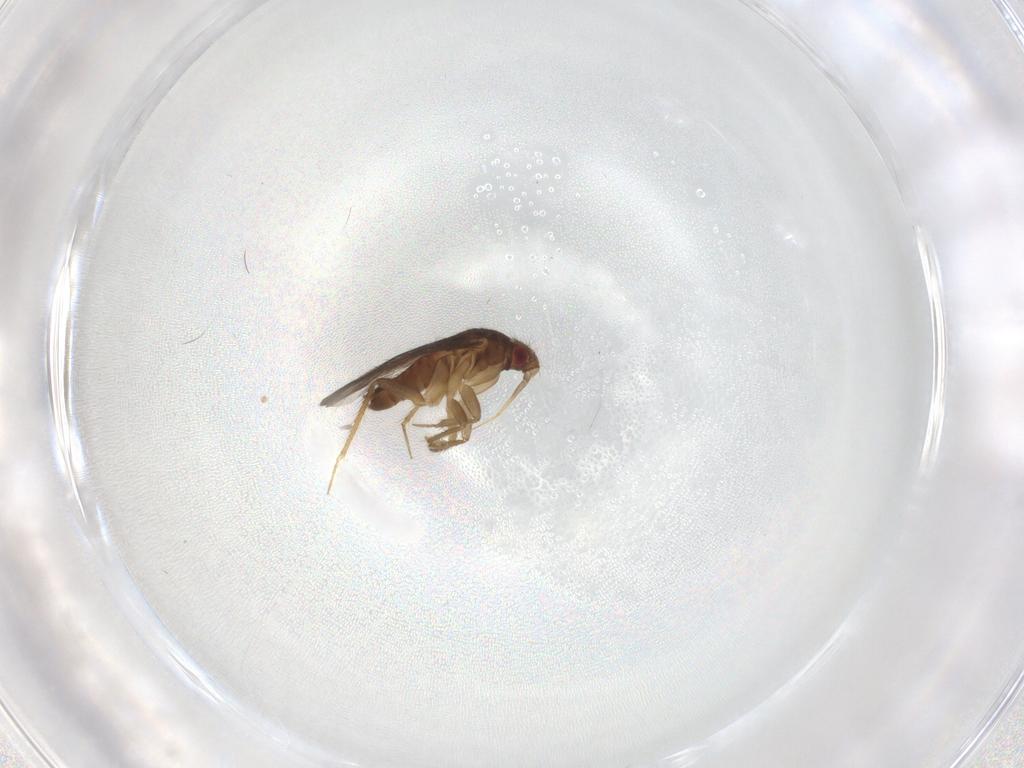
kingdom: Animalia
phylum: Arthropoda
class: Insecta
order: Hemiptera
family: Ceratocombidae
